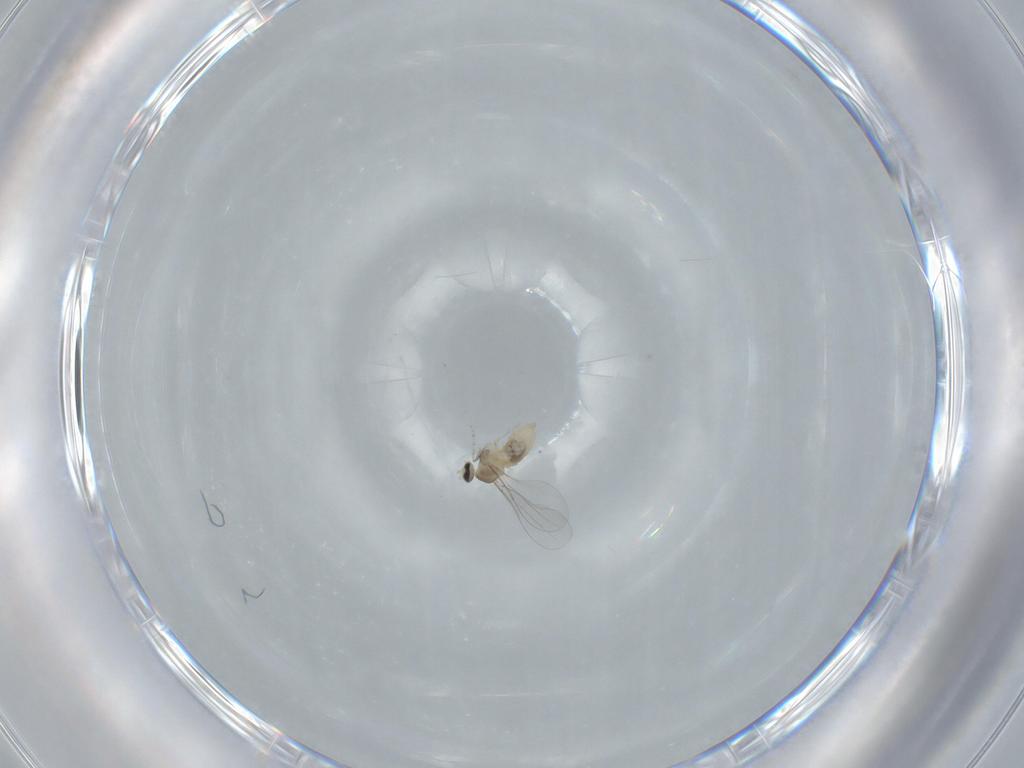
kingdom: Animalia
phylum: Arthropoda
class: Insecta
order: Diptera
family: Cecidomyiidae
